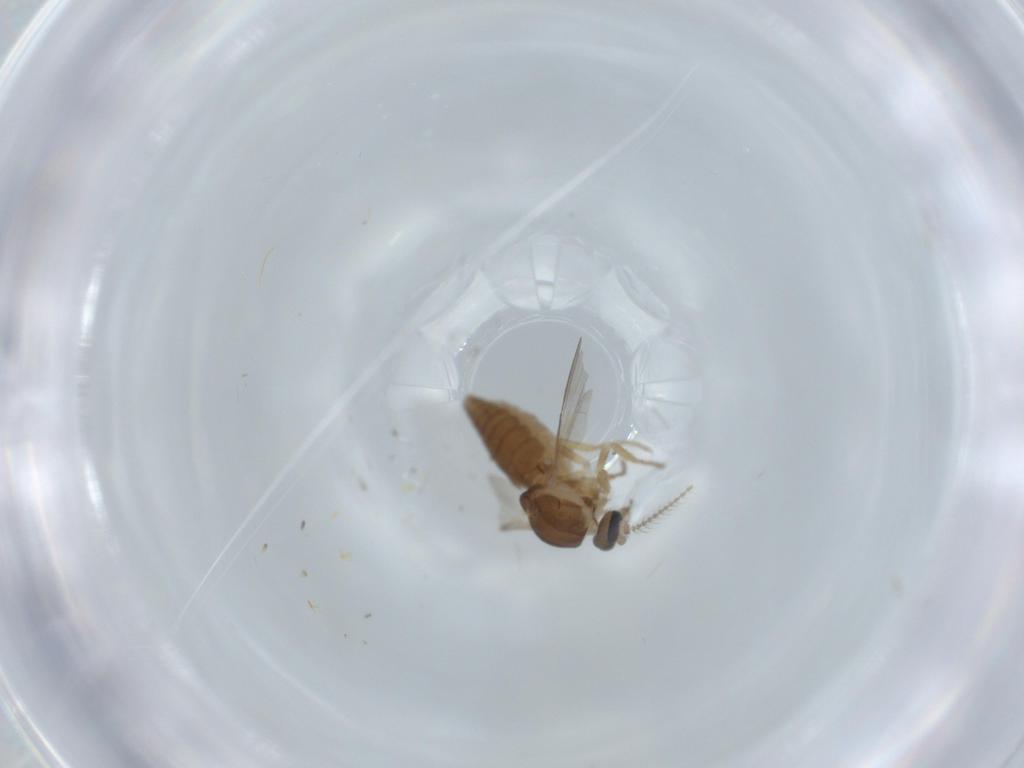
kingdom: Animalia
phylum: Arthropoda
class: Insecta
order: Diptera
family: Ceratopogonidae
